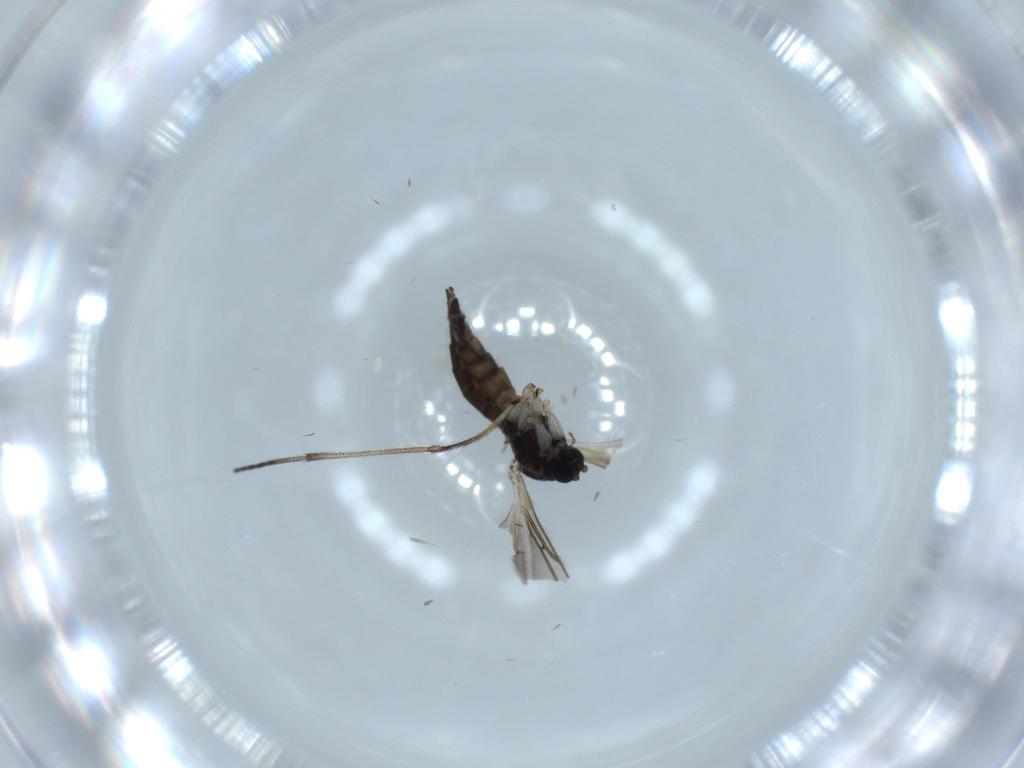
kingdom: Animalia
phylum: Arthropoda
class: Insecta
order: Diptera
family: Sciaridae
